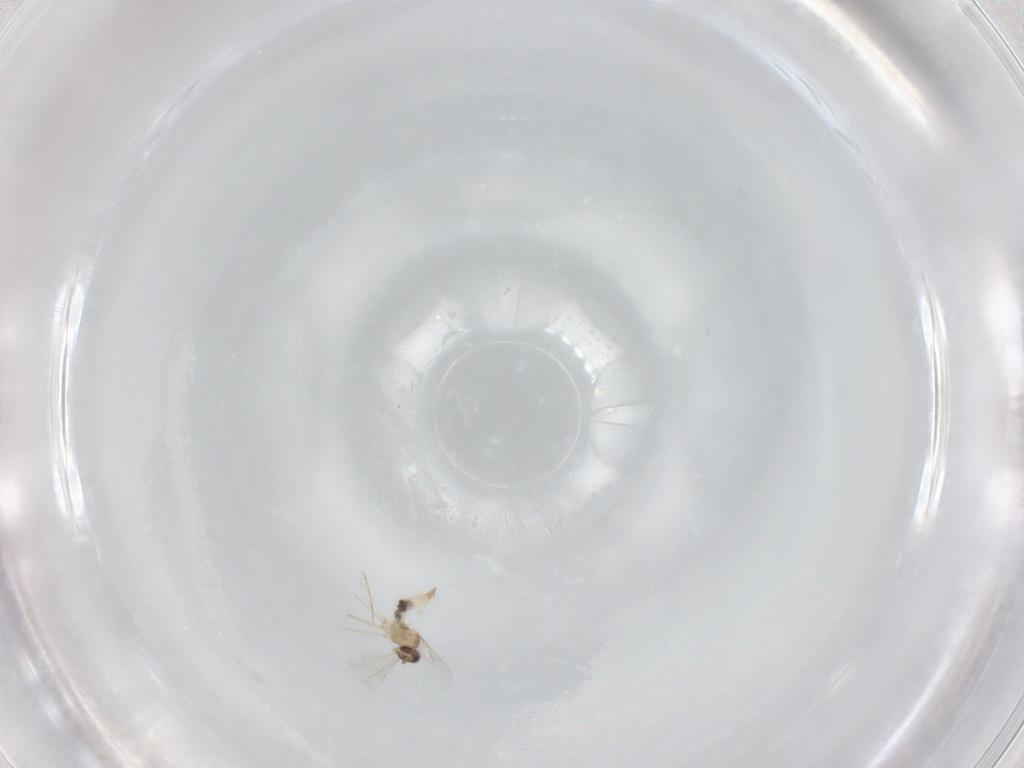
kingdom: Animalia
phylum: Arthropoda
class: Insecta
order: Diptera
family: Cecidomyiidae
